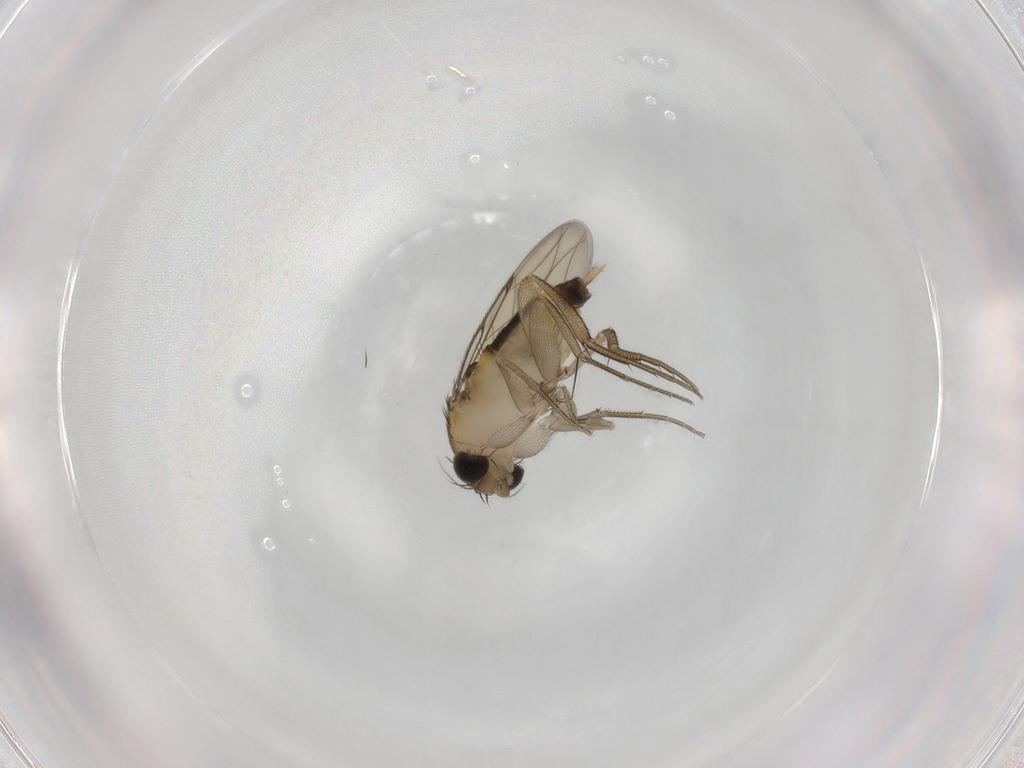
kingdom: Animalia
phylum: Arthropoda
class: Insecta
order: Diptera
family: Phoridae
